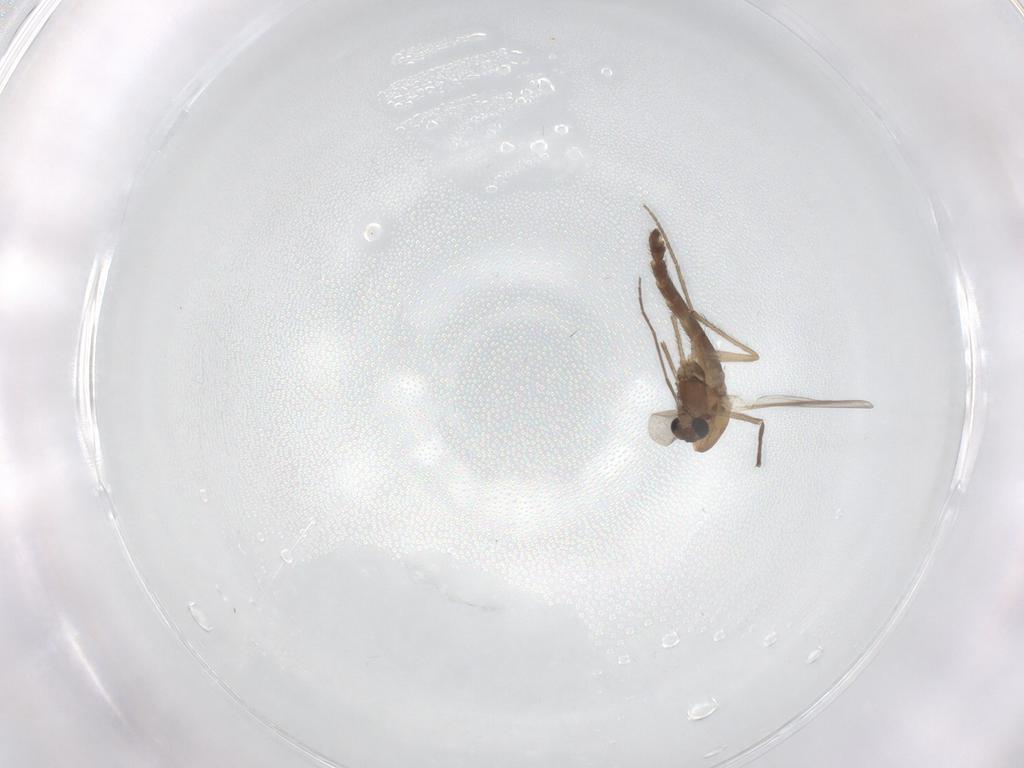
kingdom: Animalia
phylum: Arthropoda
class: Insecta
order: Diptera
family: Chironomidae
